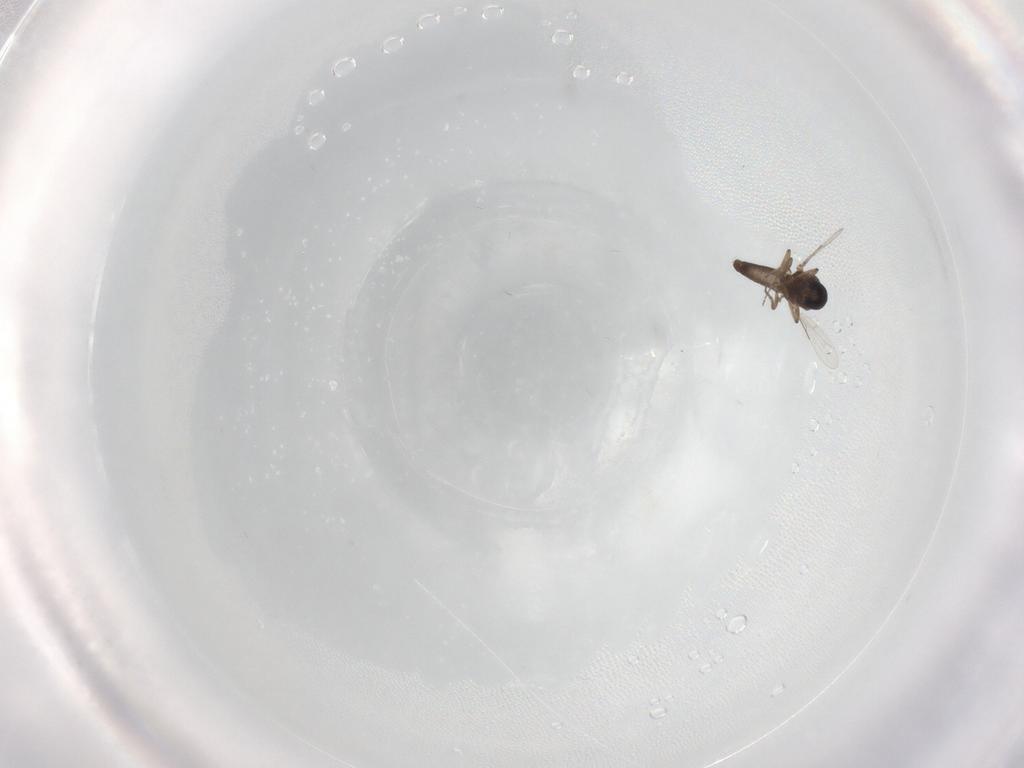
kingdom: Animalia
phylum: Arthropoda
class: Insecta
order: Diptera
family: Ceratopogonidae
